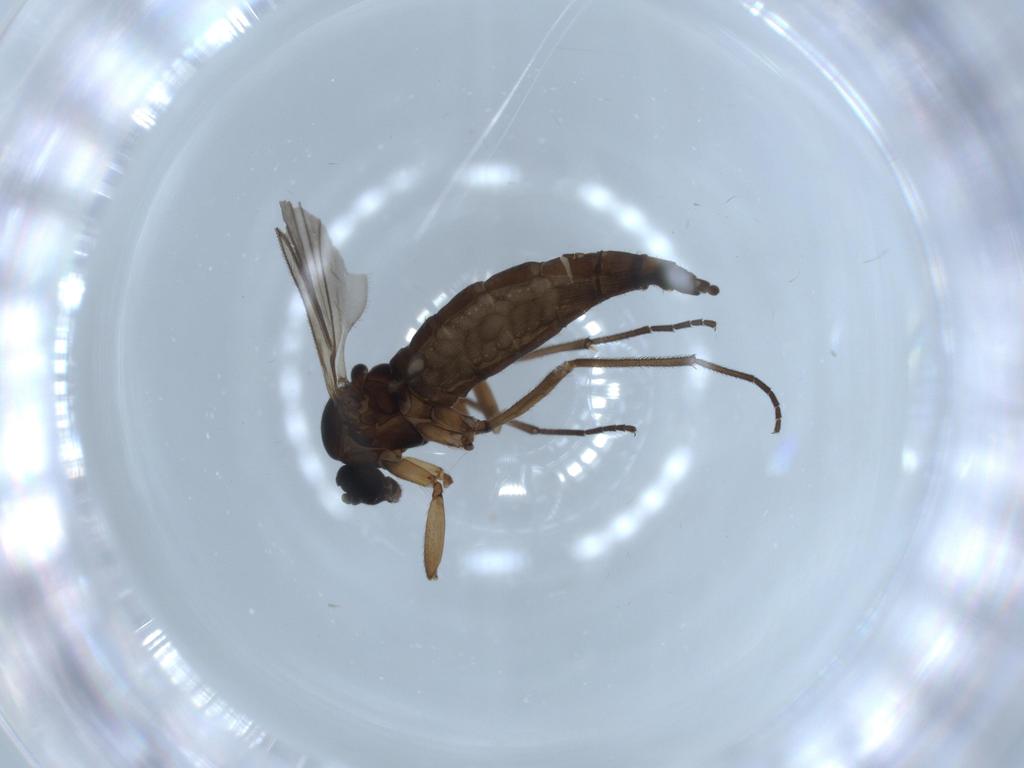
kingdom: Animalia
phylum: Arthropoda
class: Insecta
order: Diptera
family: Sciaridae
